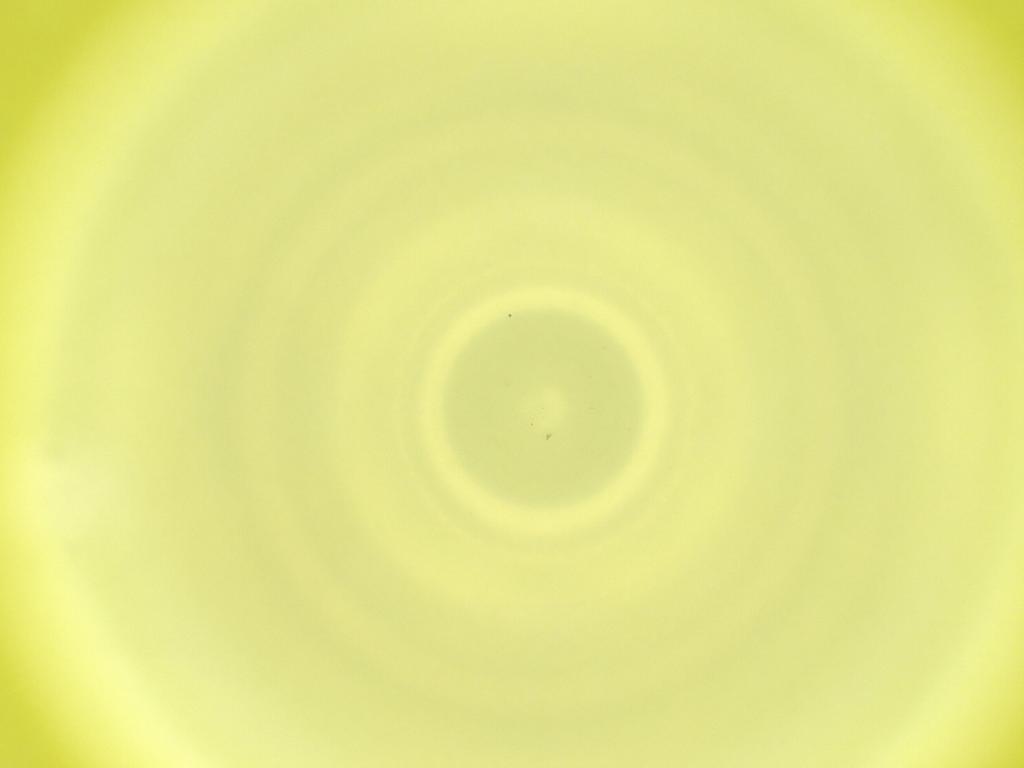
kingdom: Animalia
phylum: Arthropoda
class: Insecta
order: Diptera
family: Cecidomyiidae
